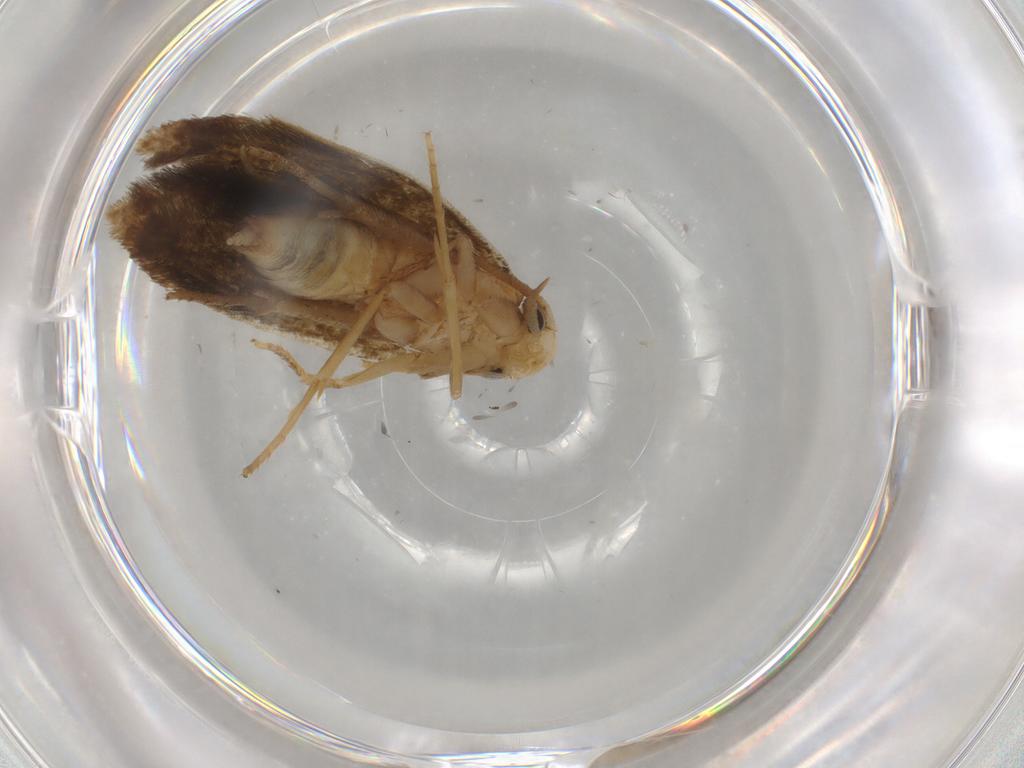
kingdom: Animalia
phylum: Arthropoda
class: Insecta
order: Lepidoptera
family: Tineidae
